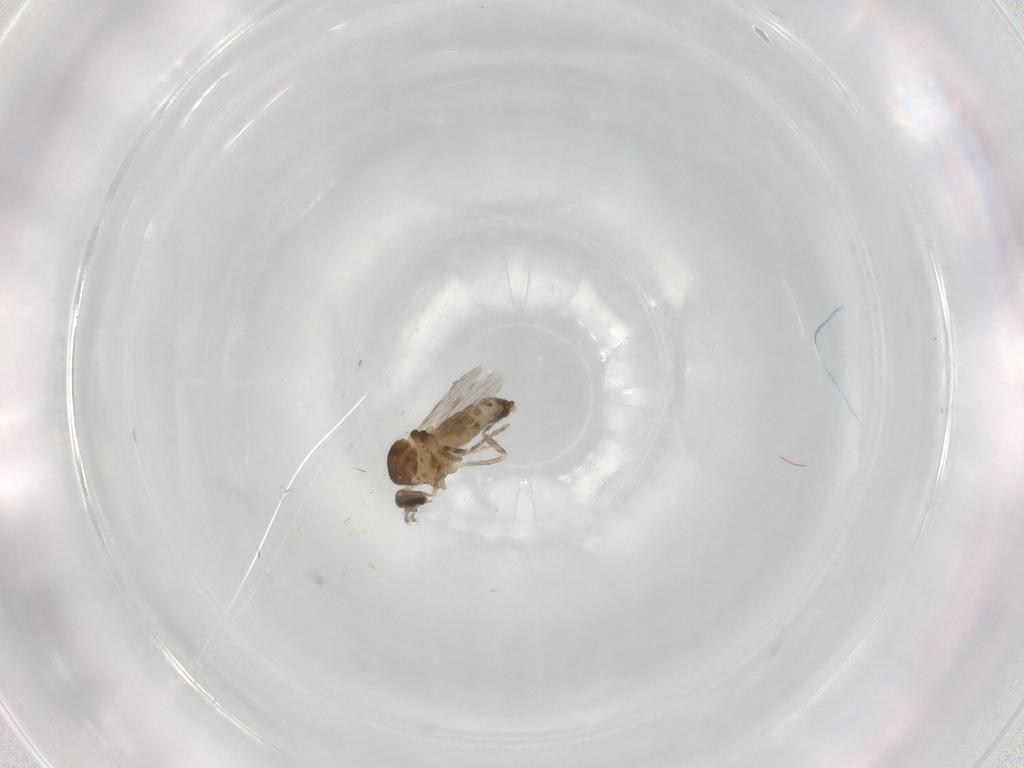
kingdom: Animalia
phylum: Arthropoda
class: Insecta
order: Diptera
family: Ceratopogonidae
